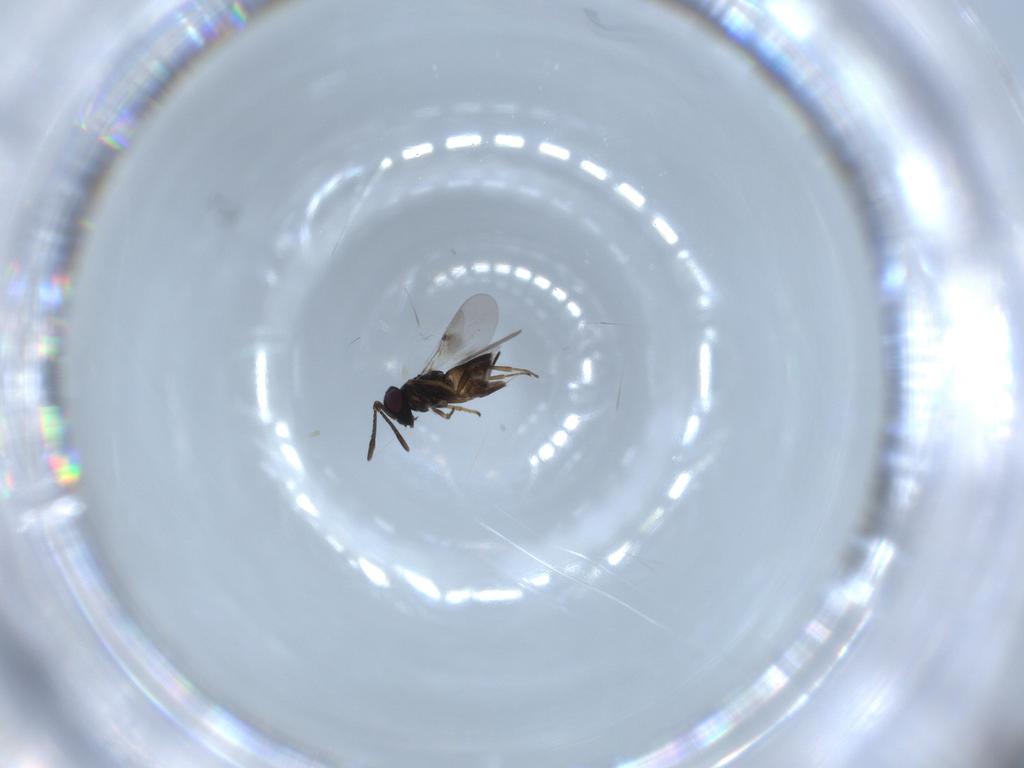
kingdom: Animalia
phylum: Arthropoda
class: Insecta
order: Hymenoptera
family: Encyrtidae
